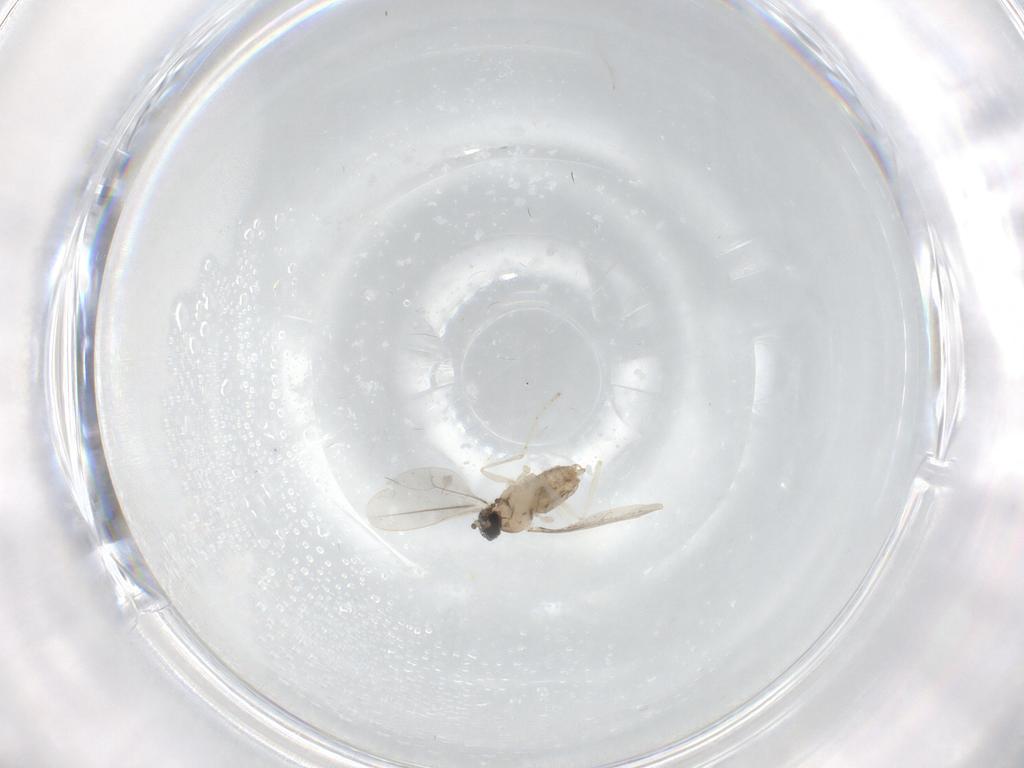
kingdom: Animalia
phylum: Arthropoda
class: Insecta
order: Diptera
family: Cecidomyiidae
